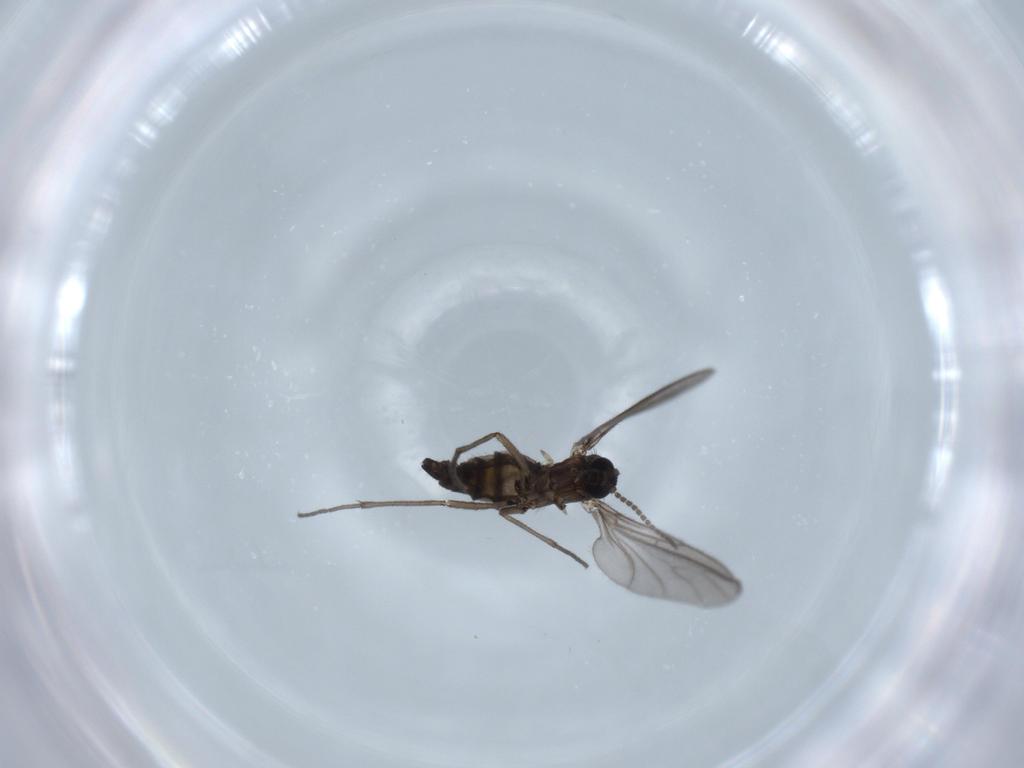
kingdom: Animalia
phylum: Arthropoda
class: Insecta
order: Diptera
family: Sciaridae
